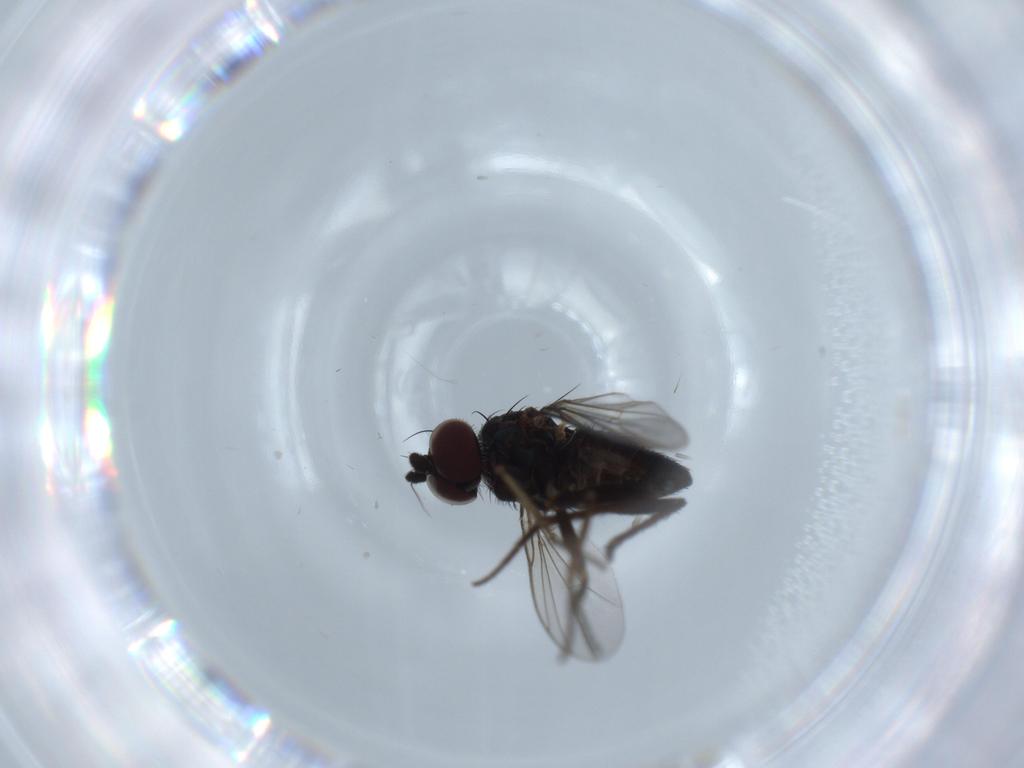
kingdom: Animalia
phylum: Arthropoda
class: Insecta
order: Diptera
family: Dolichopodidae
